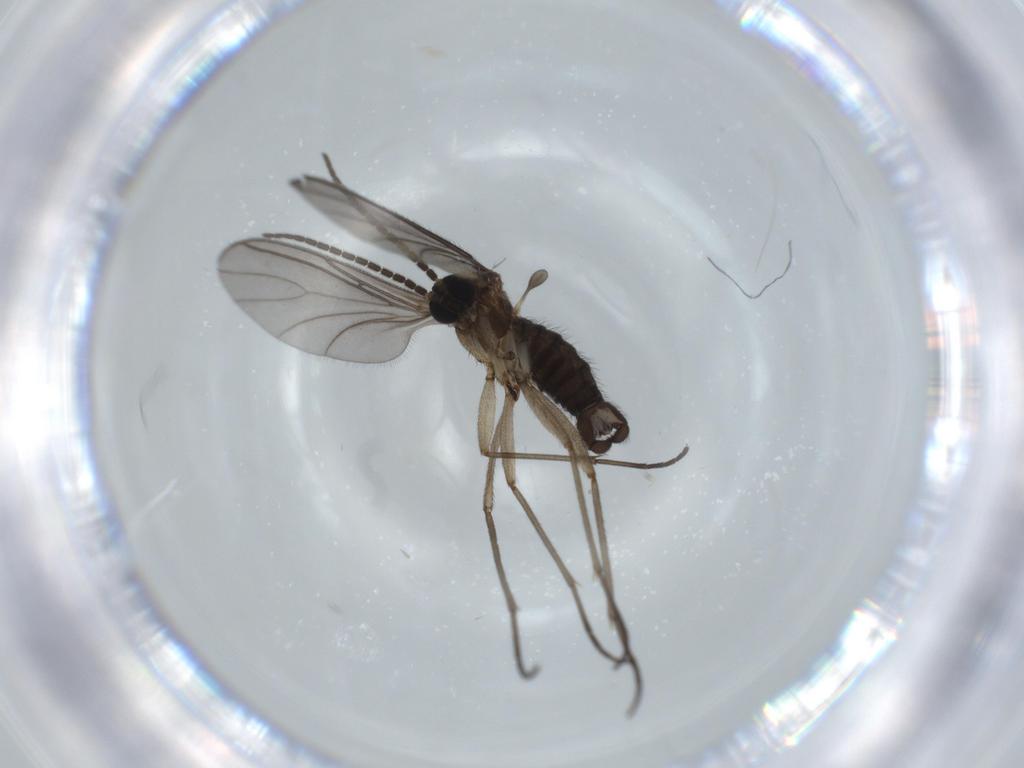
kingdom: Animalia
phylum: Arthropoda
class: Insecta
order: Diptera
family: Sciaridae
